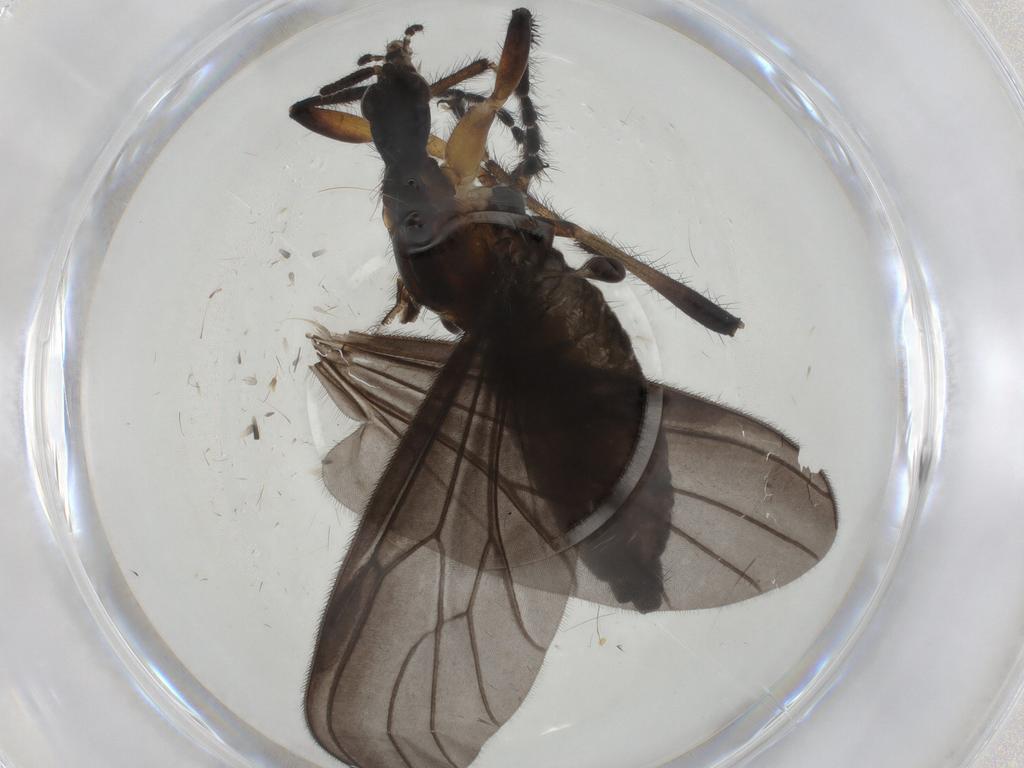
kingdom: Animalia
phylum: Arthropoda
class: Insecta
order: Diptera
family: Bibionidae
